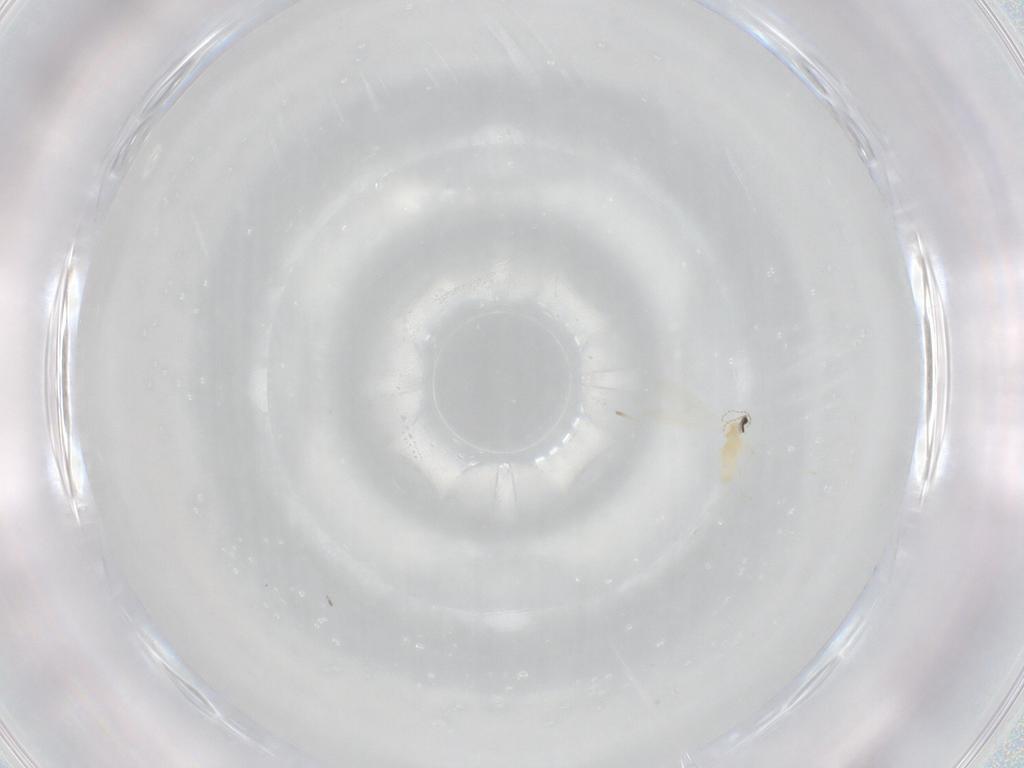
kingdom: Animalia
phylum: Arthropoda
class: Insecta
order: Diptera
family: Cecidomyiidae
